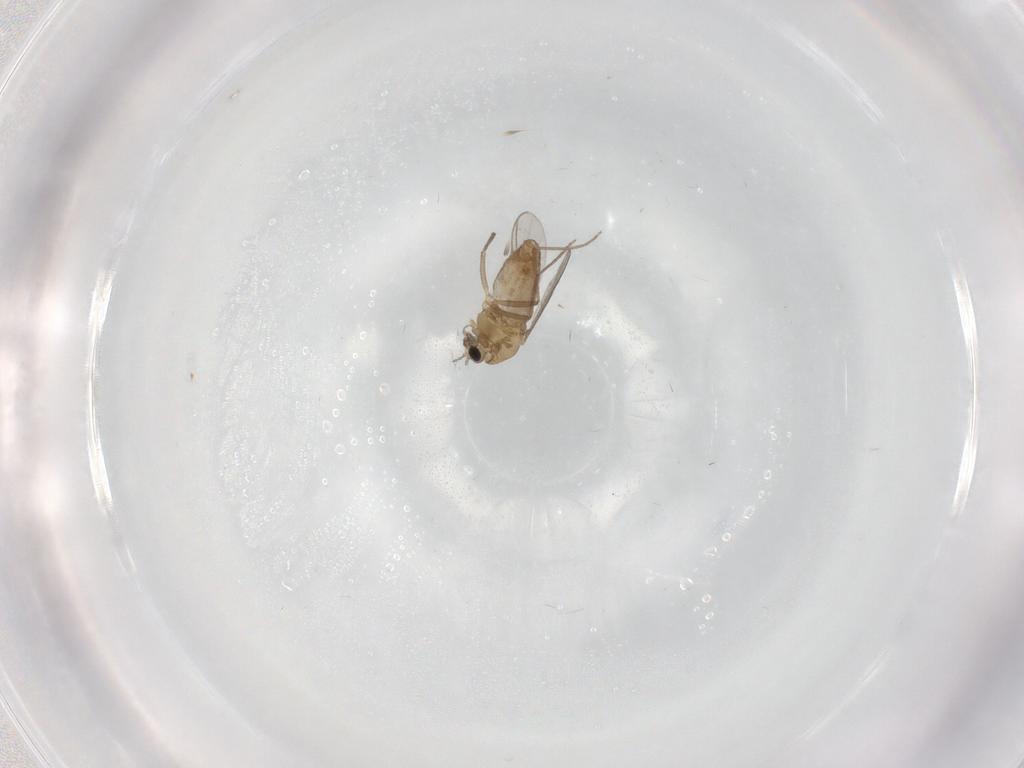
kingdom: Animalia
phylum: Arthropoda
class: Insecta
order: Diptera
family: Chironomidae
